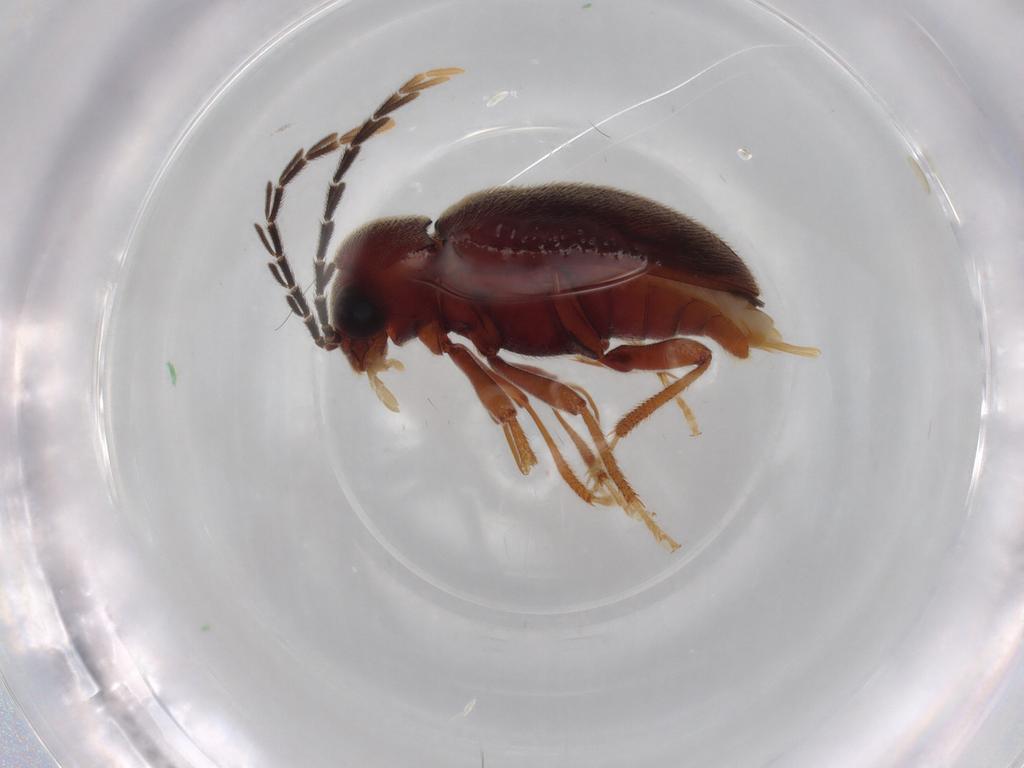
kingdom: Animalia
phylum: Arthropoda
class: Insecta
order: Coleoptera
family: Ptilodactylidae
